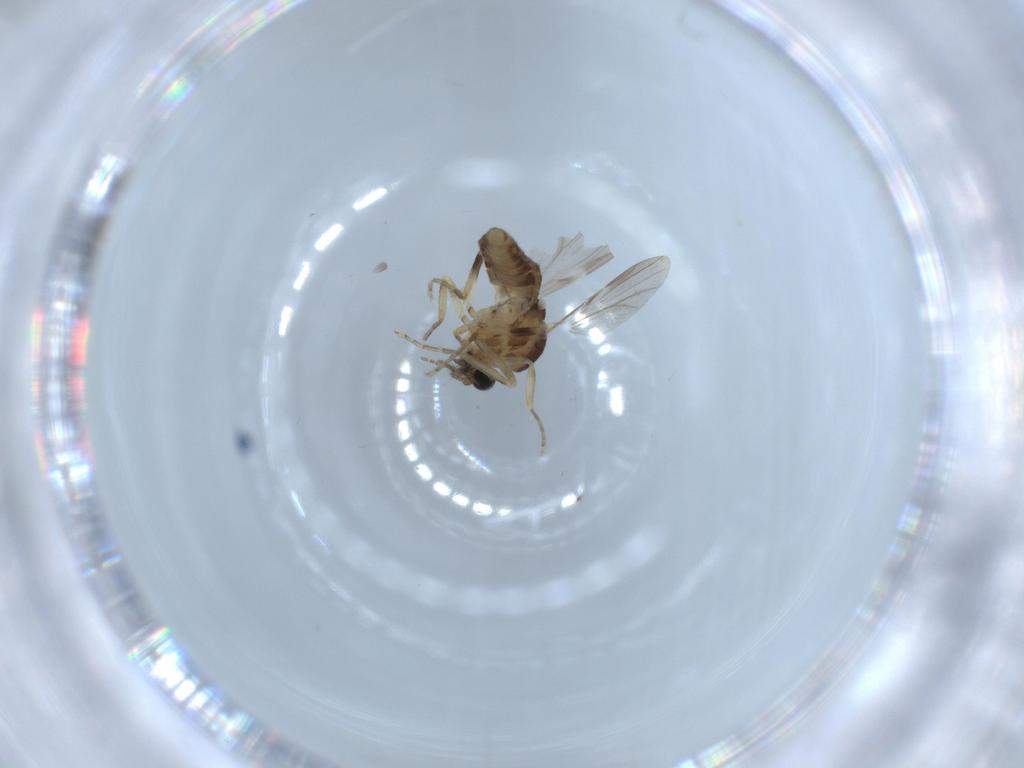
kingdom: Animalia
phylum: Arthropoda
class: Insecta
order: Diptera
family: Ceratopogonidae
